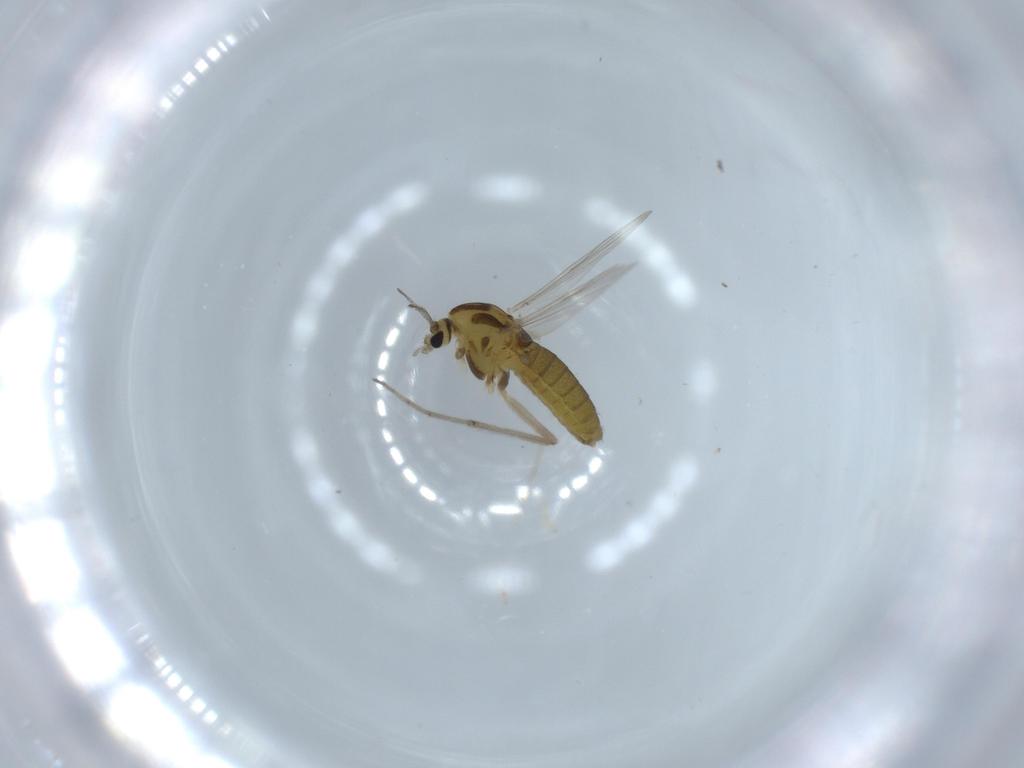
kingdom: Animalia
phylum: Arthropoda
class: Insecta
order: Diptera
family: Chironomidae
